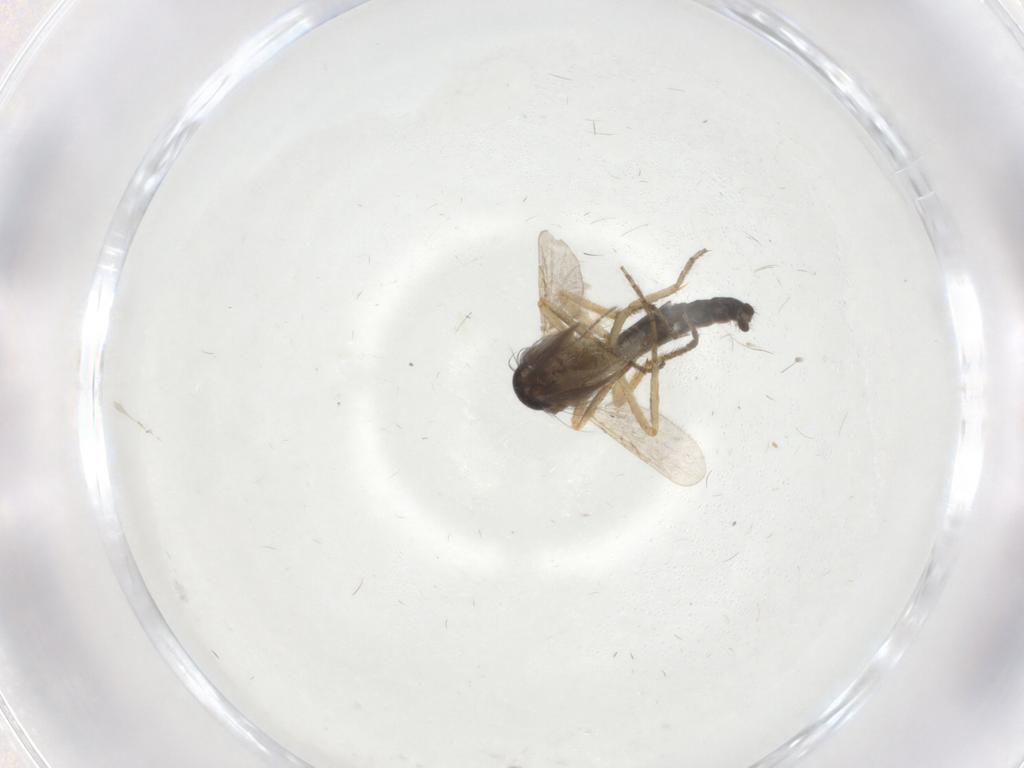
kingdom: Animalia
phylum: Arthropoda
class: Insecta
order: Diptera
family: Ceratopogonidae
